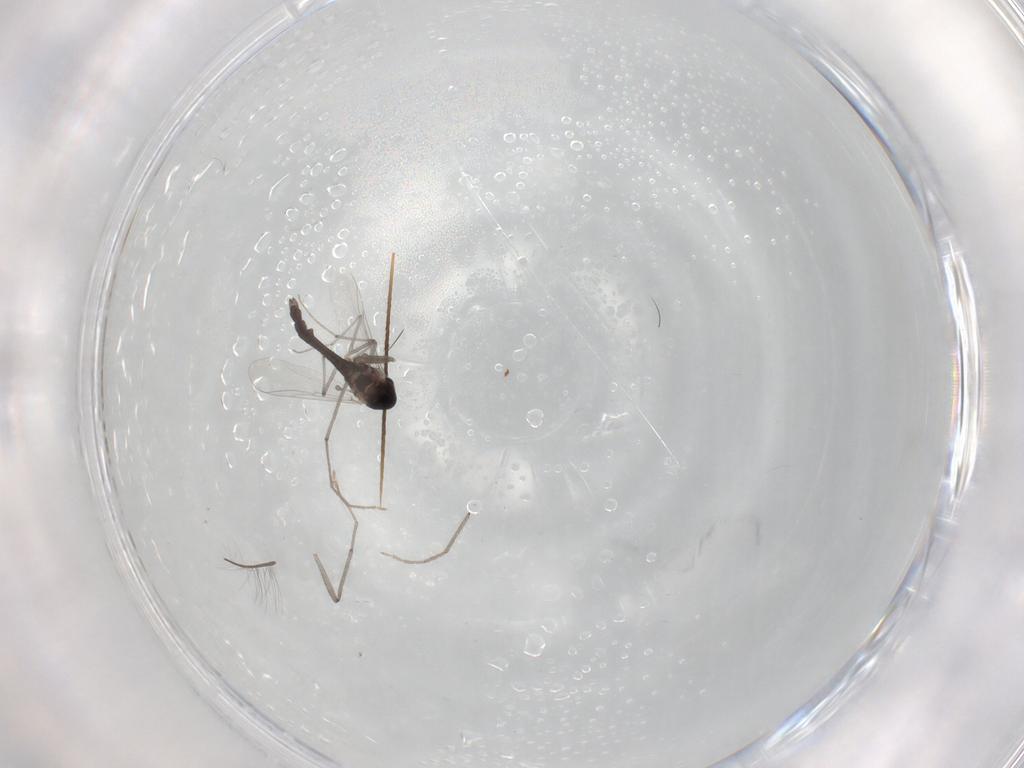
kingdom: Animalia
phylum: Arthropoda
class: Insecta
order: Diptera
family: Chironomidae
